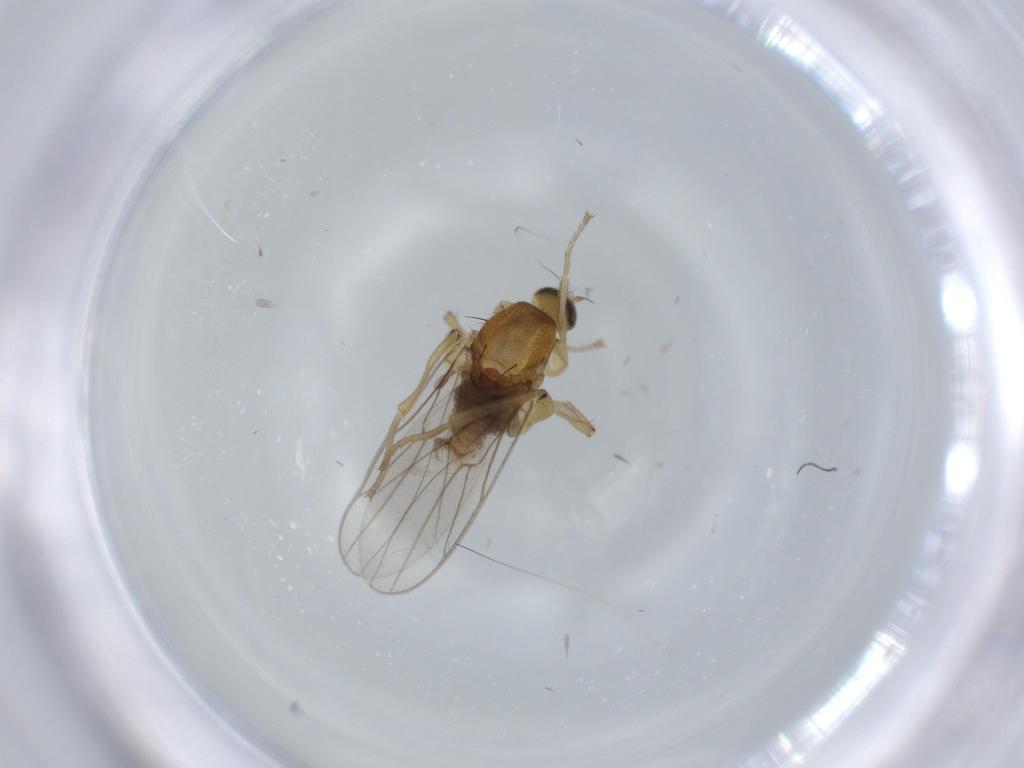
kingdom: Animalia
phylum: Arthropoda
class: Insecta
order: Diptera
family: Hybotidae
